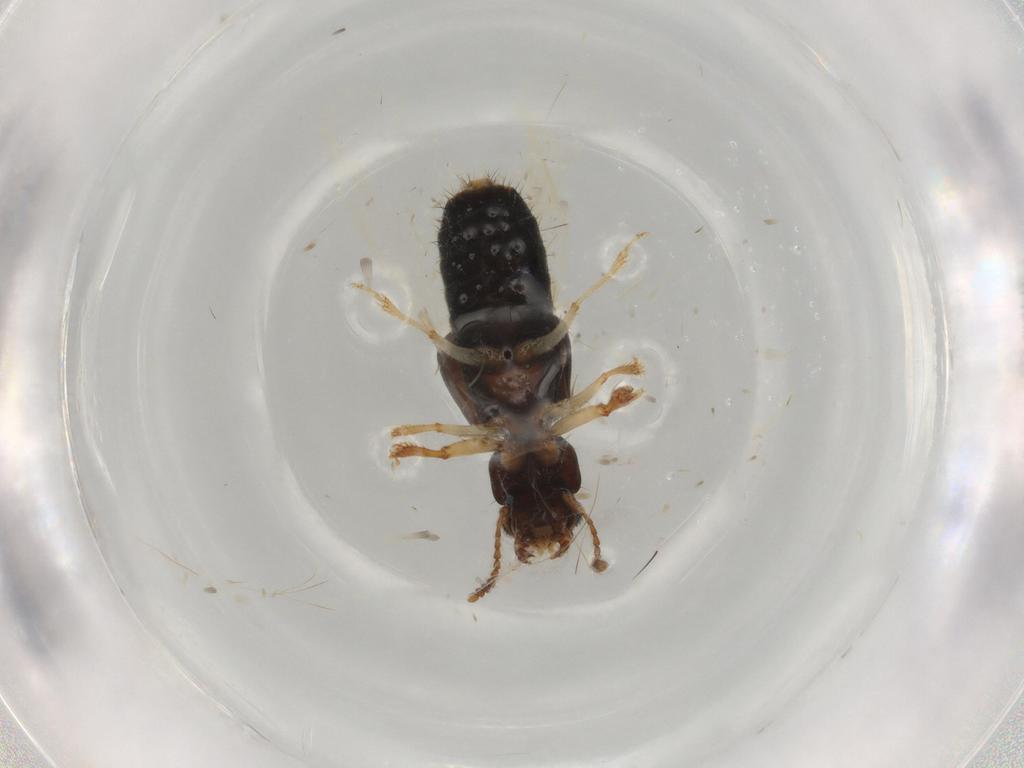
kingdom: Animalia
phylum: Arthropoda
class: Insecta
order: Coleoptera
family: Staphylinidae
